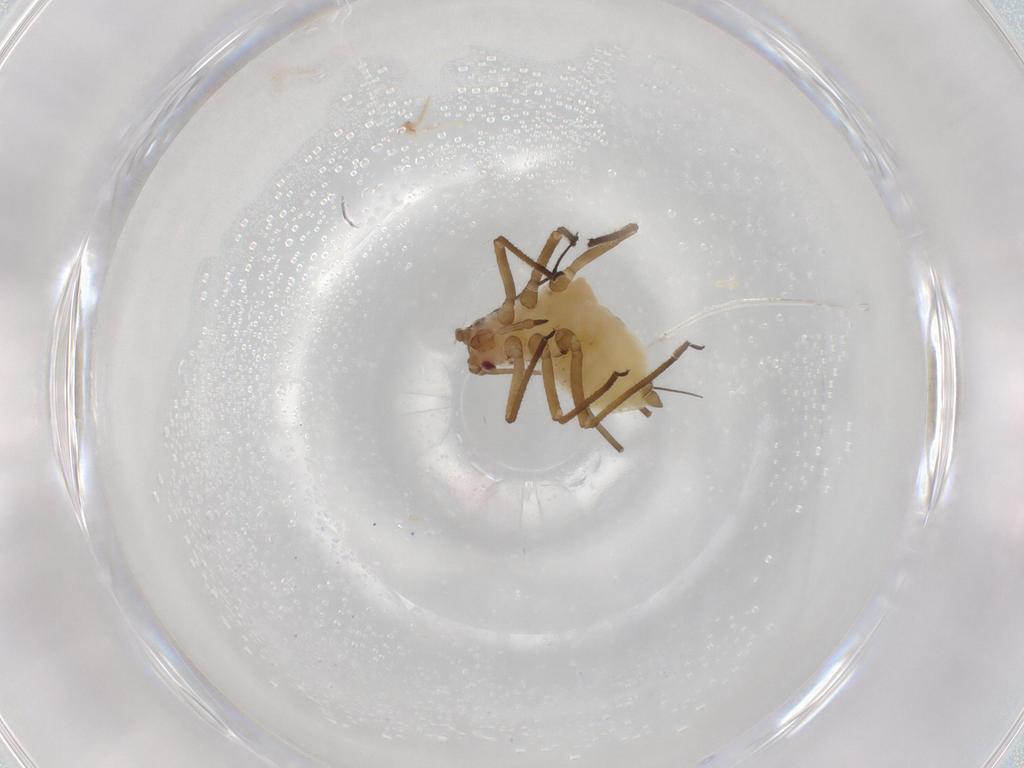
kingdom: Animalia
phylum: Arthropoda
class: Insecta
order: Hemiptera
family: Aphididae
